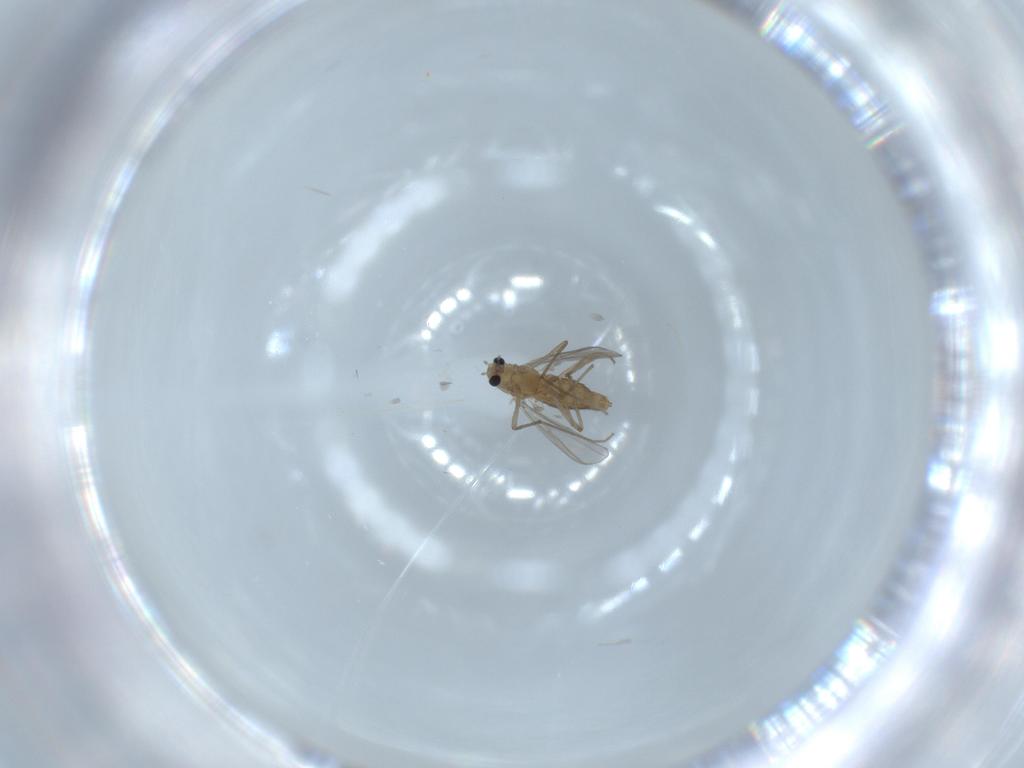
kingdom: Animalia
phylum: Arthropoda
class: Insecta
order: Diptera
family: Chironomidae
